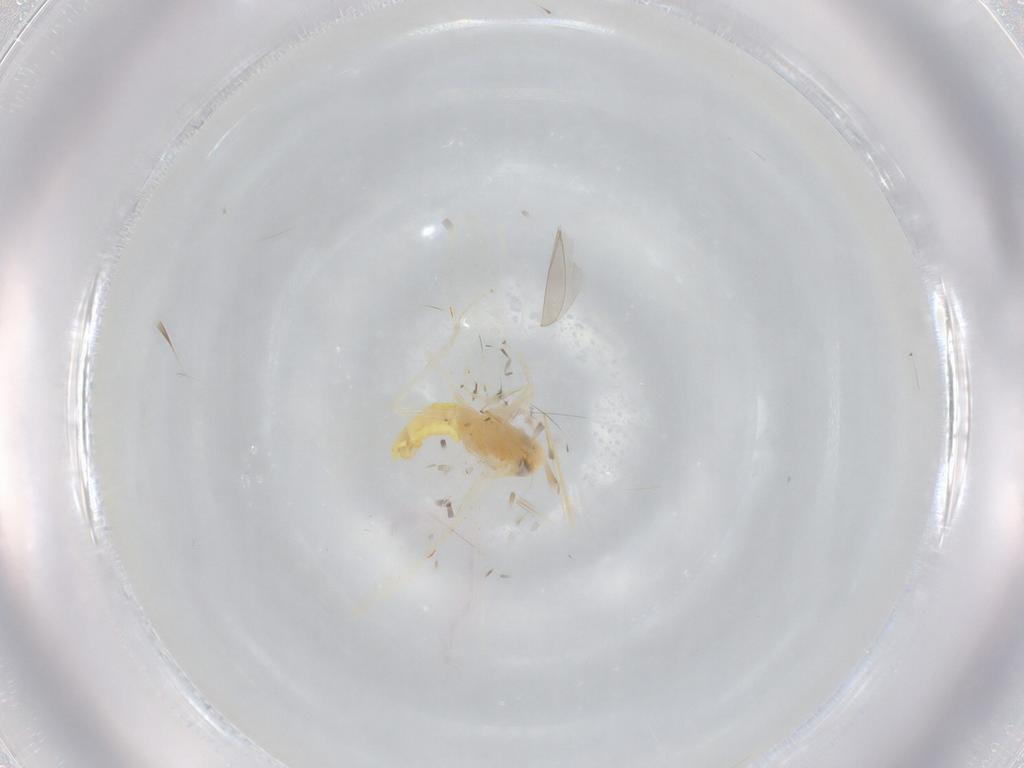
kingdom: Animalia
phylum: Arthropoda
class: Insecta
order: Hemiptera
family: Cicadellidae
